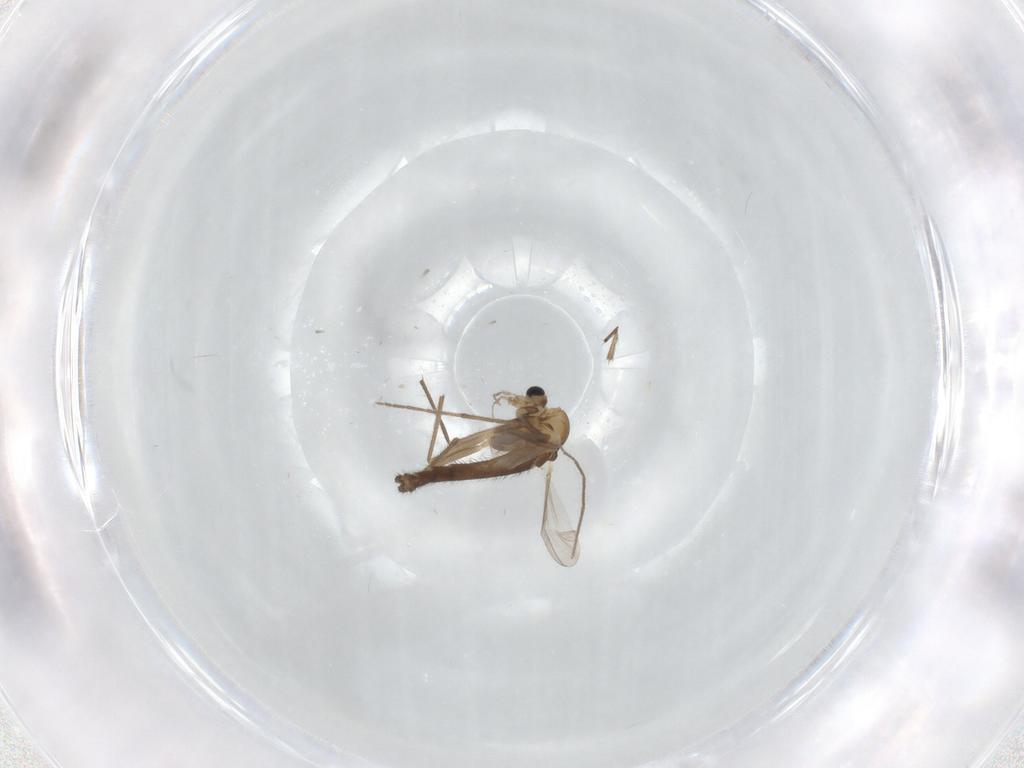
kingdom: Animalia
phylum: Arthropoda
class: Insecta
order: Diptera
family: Chironomidae
